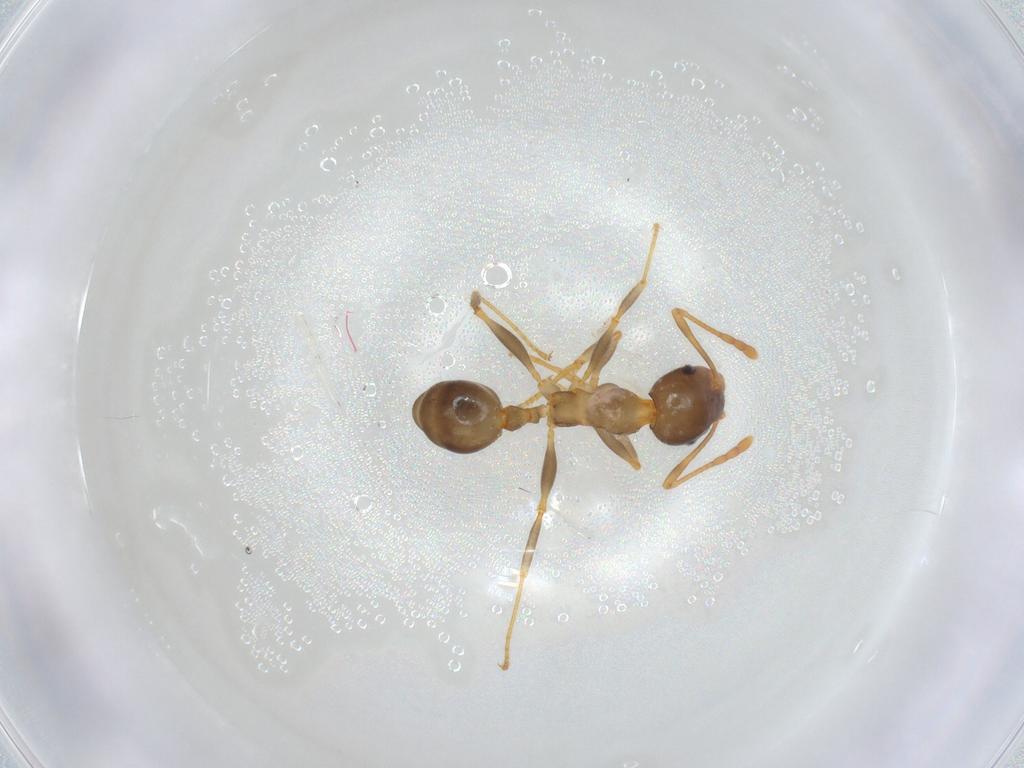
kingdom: Animalia
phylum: Arthropoda
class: Insecta
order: Hymenoptera
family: Formicidae
